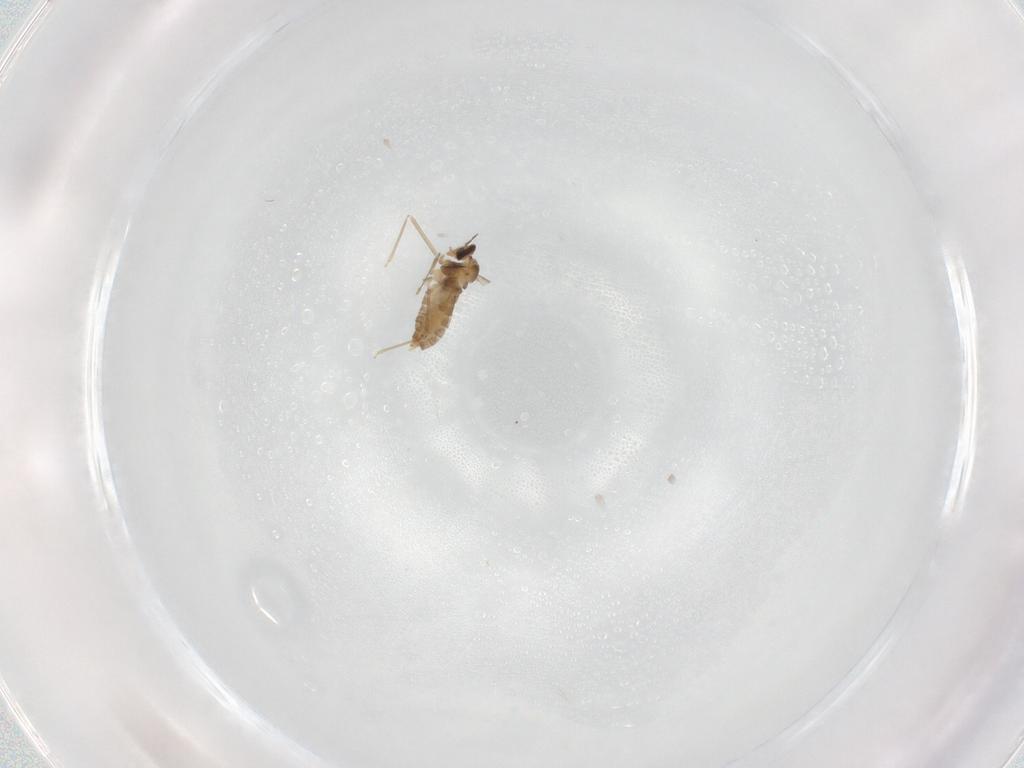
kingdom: Animalia
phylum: Arthropoda
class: Insecta
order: Diptera
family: Cecidomyiidae
